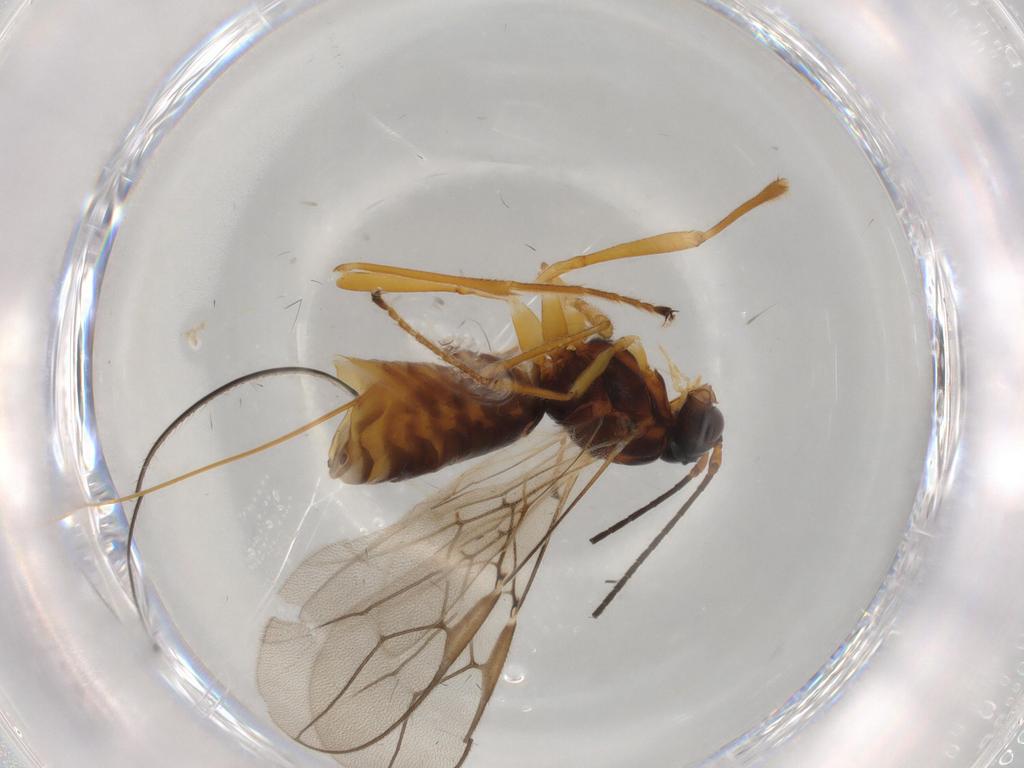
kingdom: Animalia
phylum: Arthropoda
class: Insecta
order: Hymenoptera
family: Braconidae
